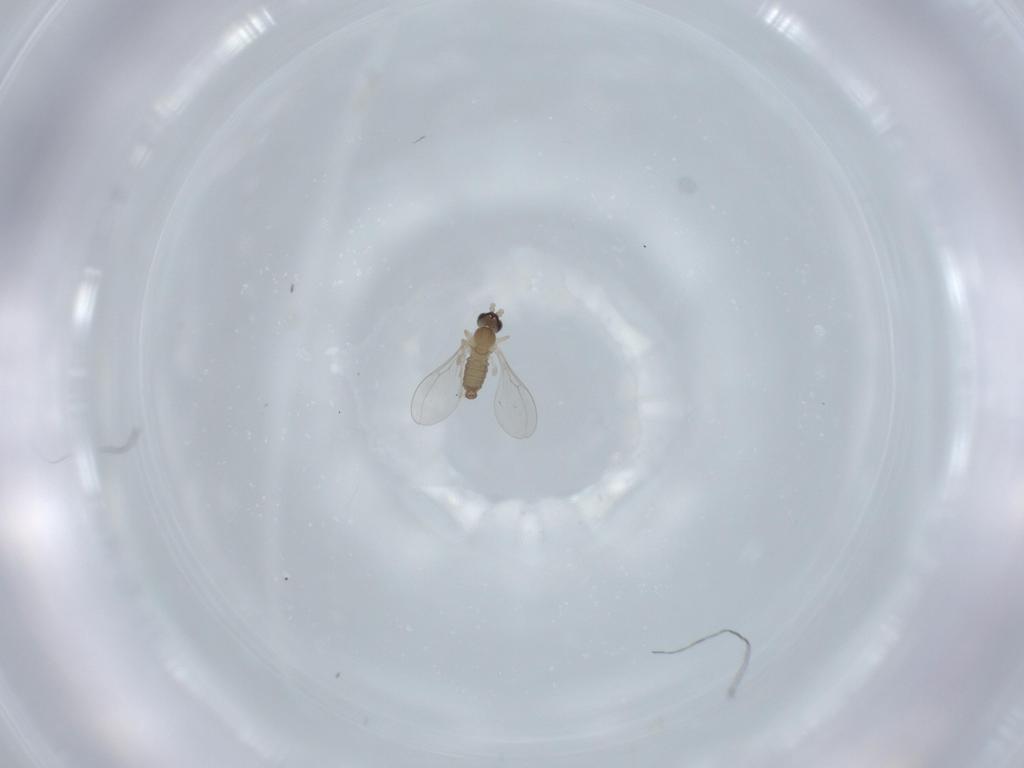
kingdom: Animalia
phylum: Arthropoda
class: Insecta
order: Diptera
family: Cecidomyiidae
